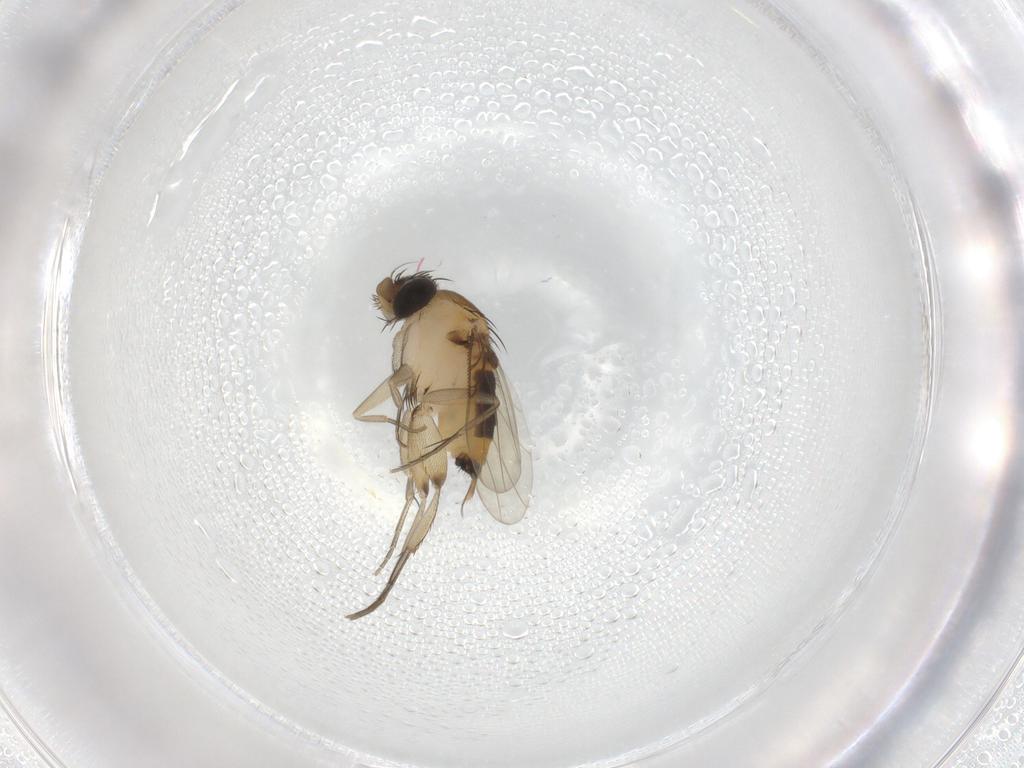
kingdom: Animalia
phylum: Arthropoda
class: Insecta
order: Diptera
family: Phoridae
